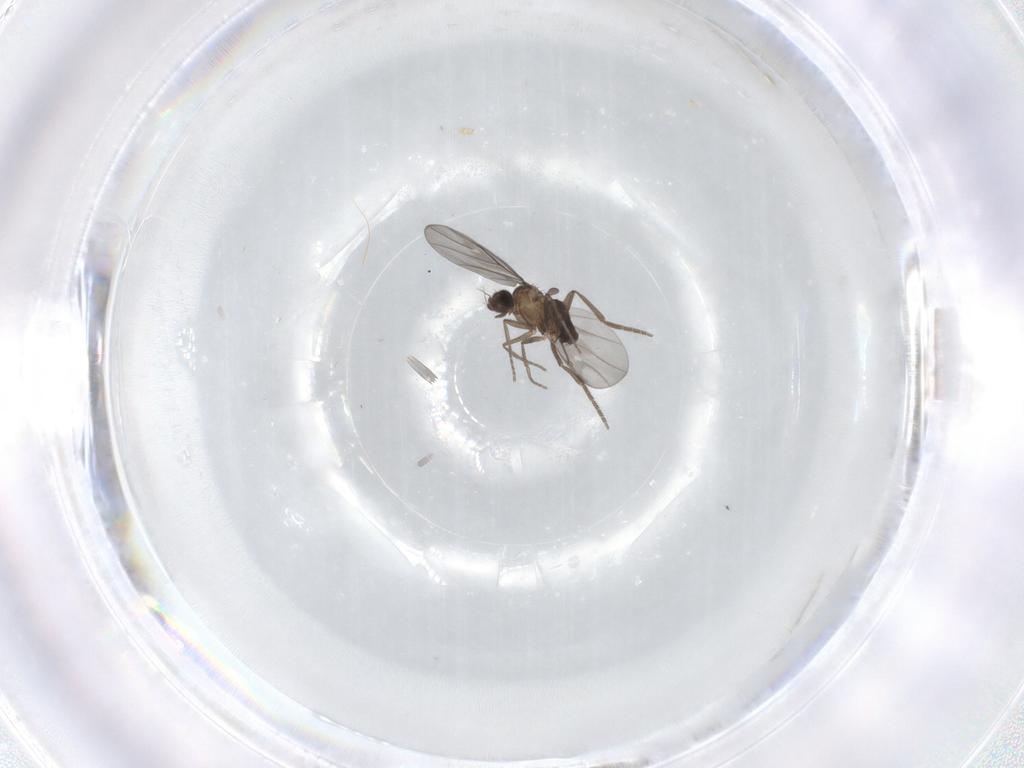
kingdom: Animalia
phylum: Arthropoda
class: Insecta
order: Diptera
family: Phoridae
